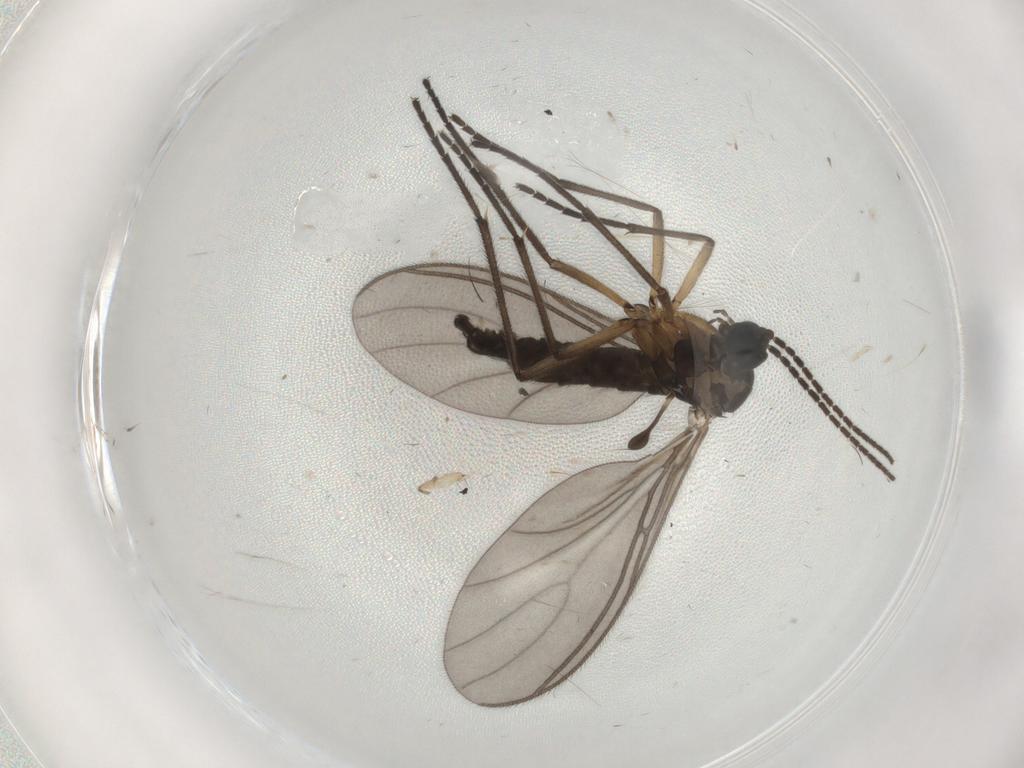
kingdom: Animalia
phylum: Arthropoda
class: Insecta
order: Diptera
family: Sciaridae
